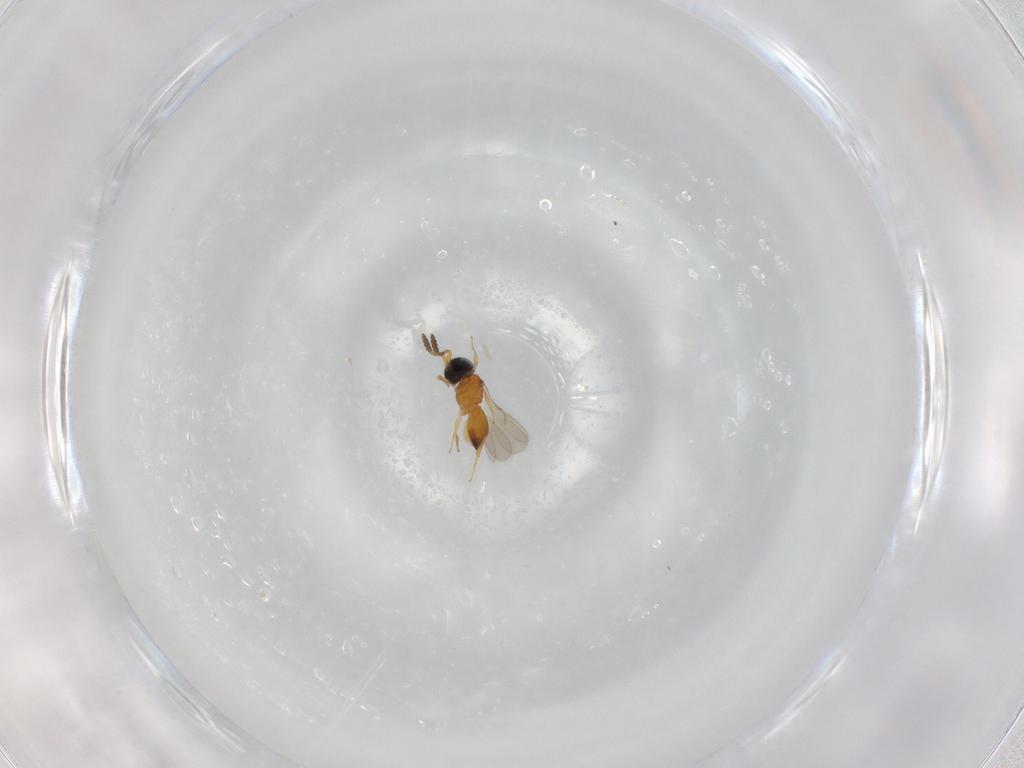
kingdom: Animalia
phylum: Arthropoda
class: Insecta
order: Hymenoptera
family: Scelionidae
